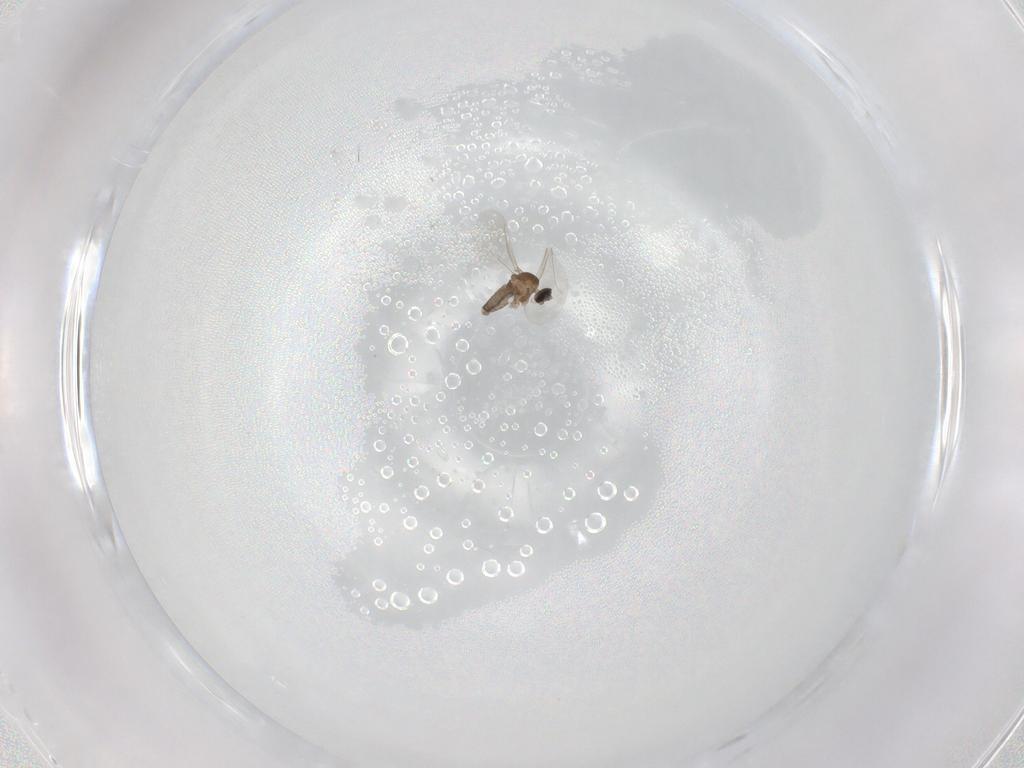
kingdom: Animalia
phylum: Arthropoda
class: Insecta
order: Diptera
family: Cecidomyiidae
